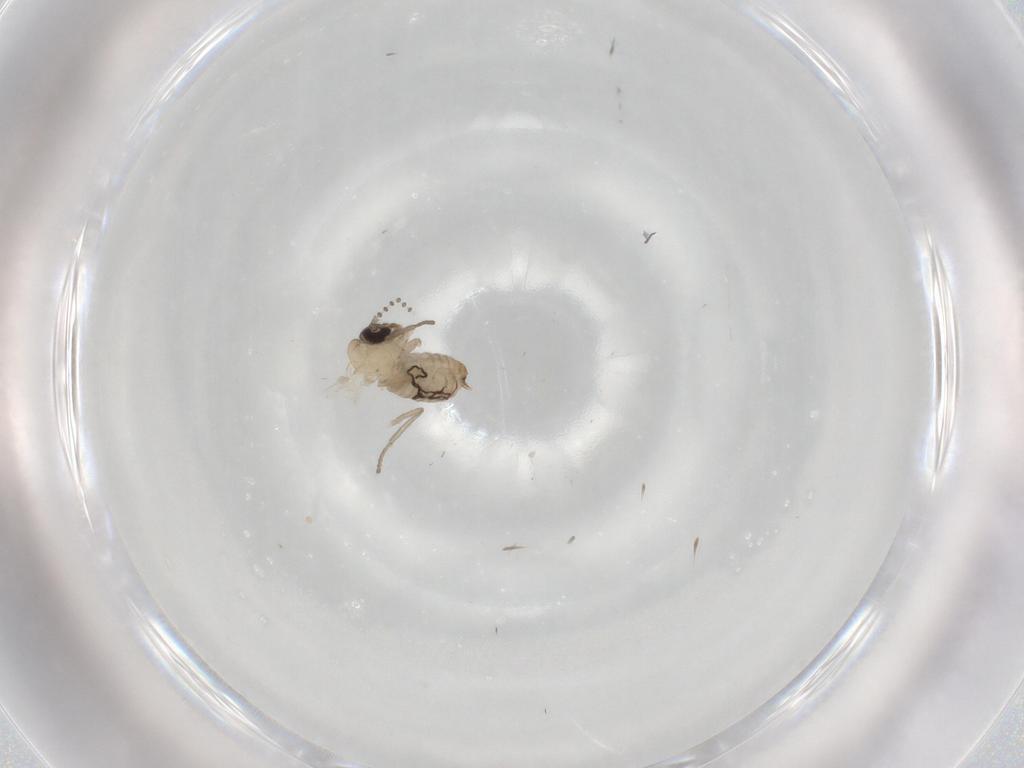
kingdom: Animalia
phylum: Arthropoda
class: Insecta
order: Diptera
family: Psychodidae
